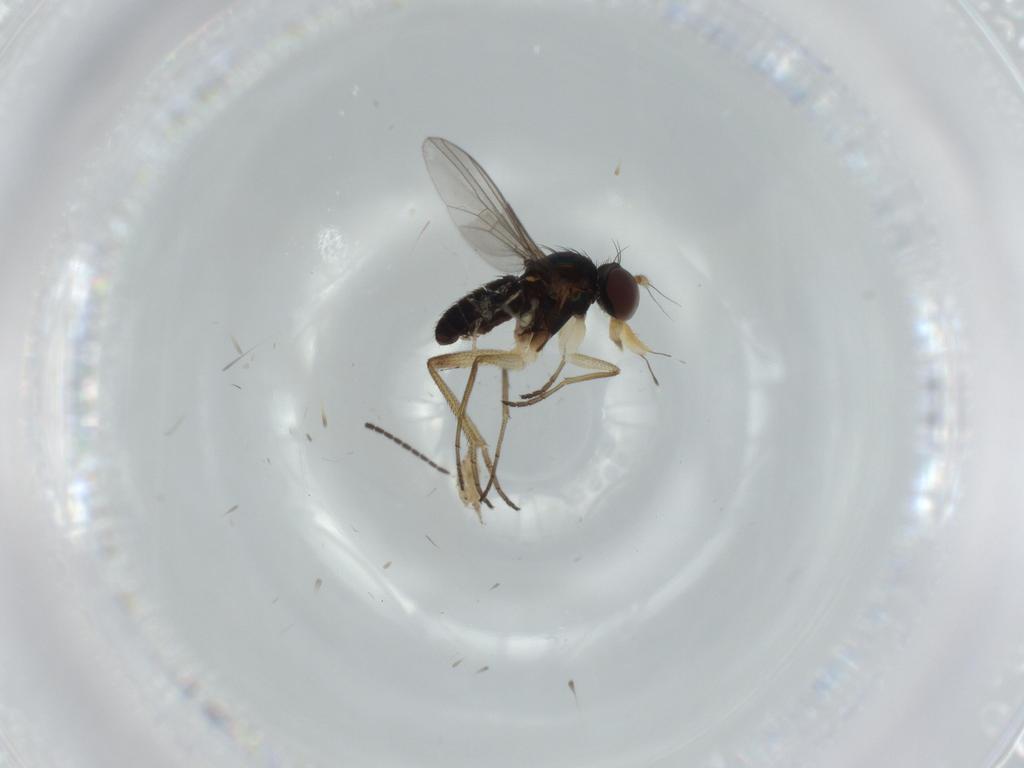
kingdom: Animalia
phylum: Arthropoda
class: Insecta
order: Diptera
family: Dolichopodidae
